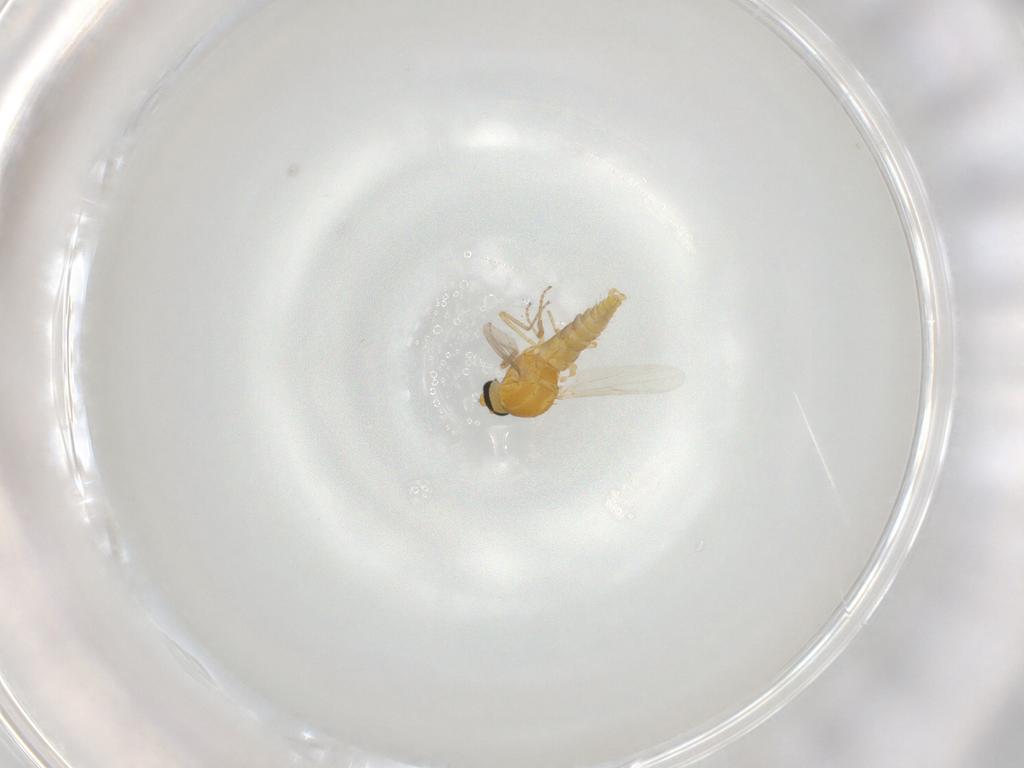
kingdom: Animalia
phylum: Arthropoda
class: Insecta
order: Diptera
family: Ceratopogonidae
